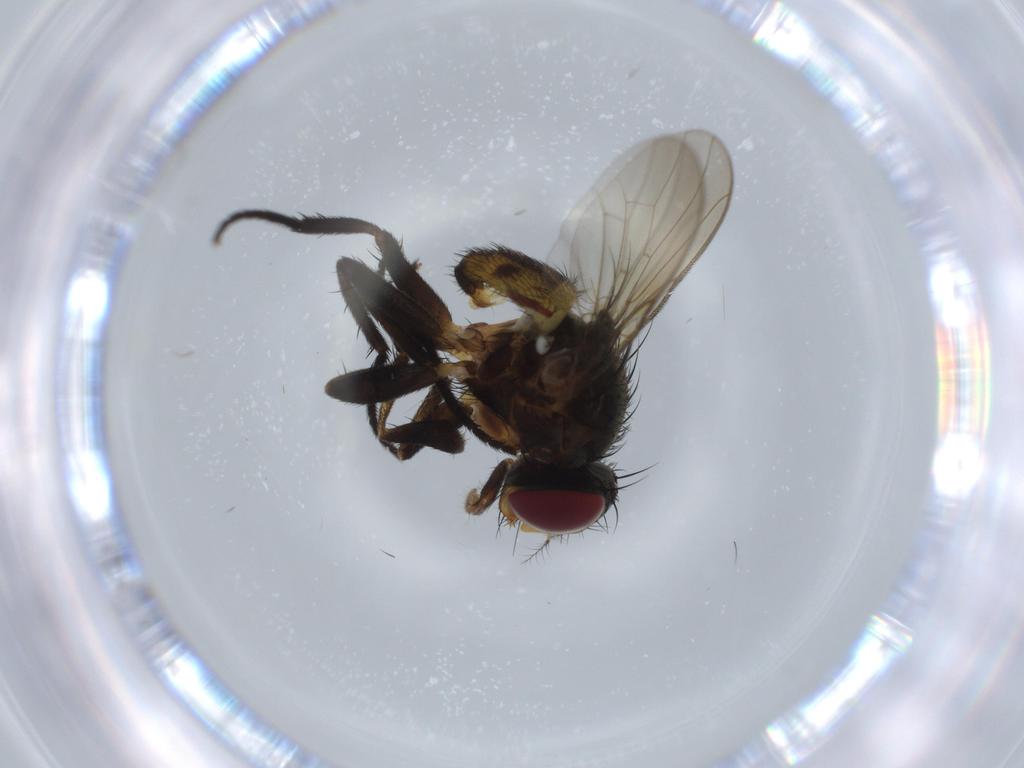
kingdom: Animalia
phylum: Arthropoda
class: Insecta
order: Diptera
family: Anthomyiidae
